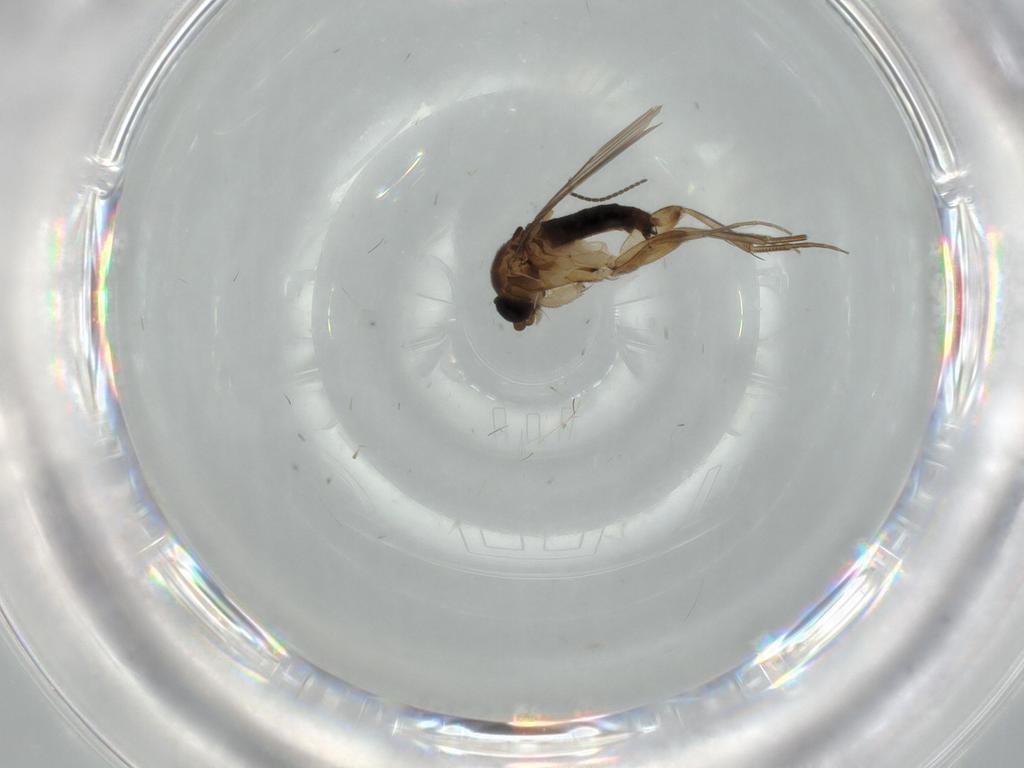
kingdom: Animalia
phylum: Arthropoda
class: Insecta
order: Diptera
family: Phoridae
